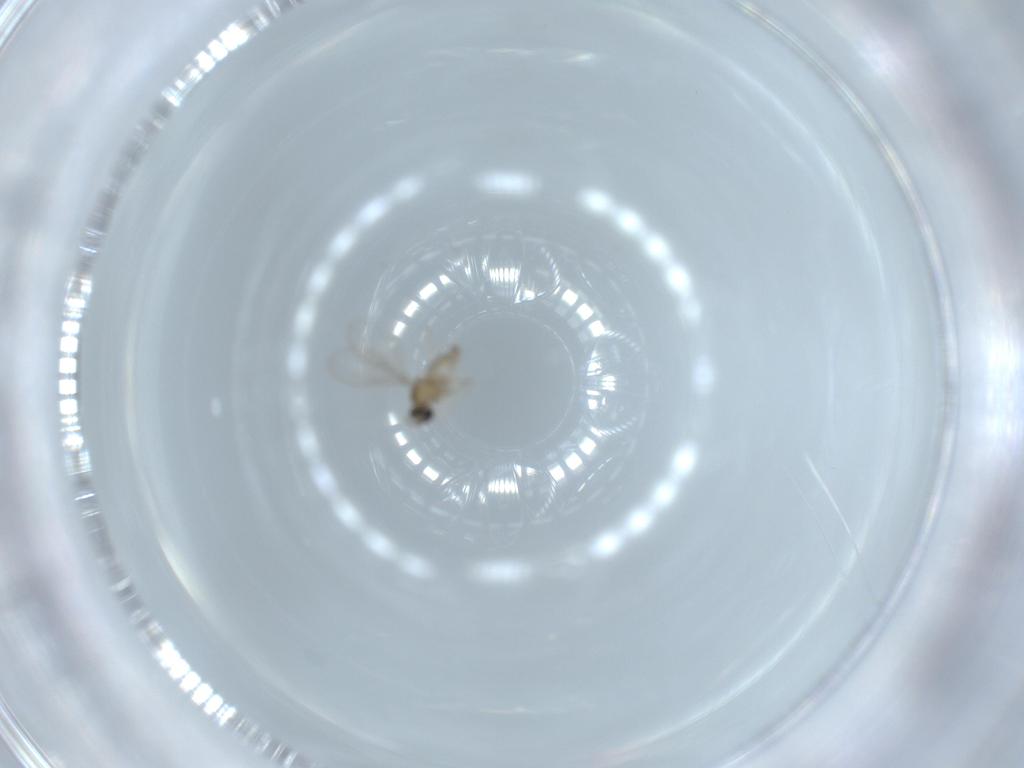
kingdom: Animalia
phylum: Arthropoda
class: Insecta
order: Diptera
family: Cecidomyiidae
